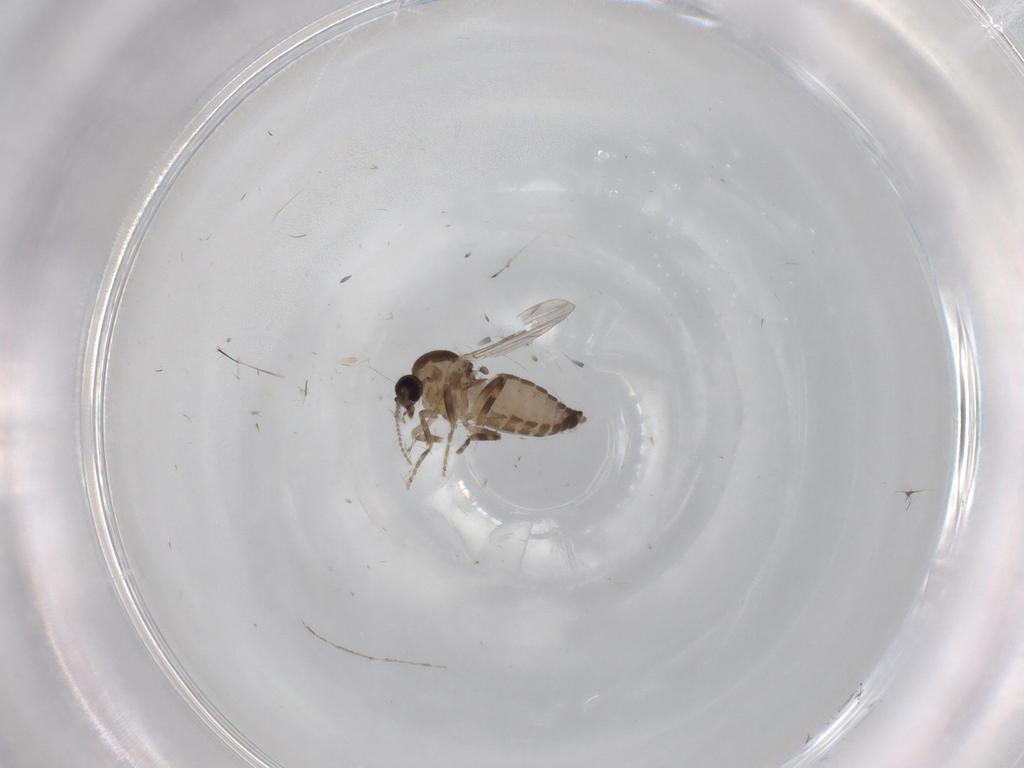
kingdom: Animalia
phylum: Arthropoda
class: Insecta
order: Diptera
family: Ceratopogonidae
